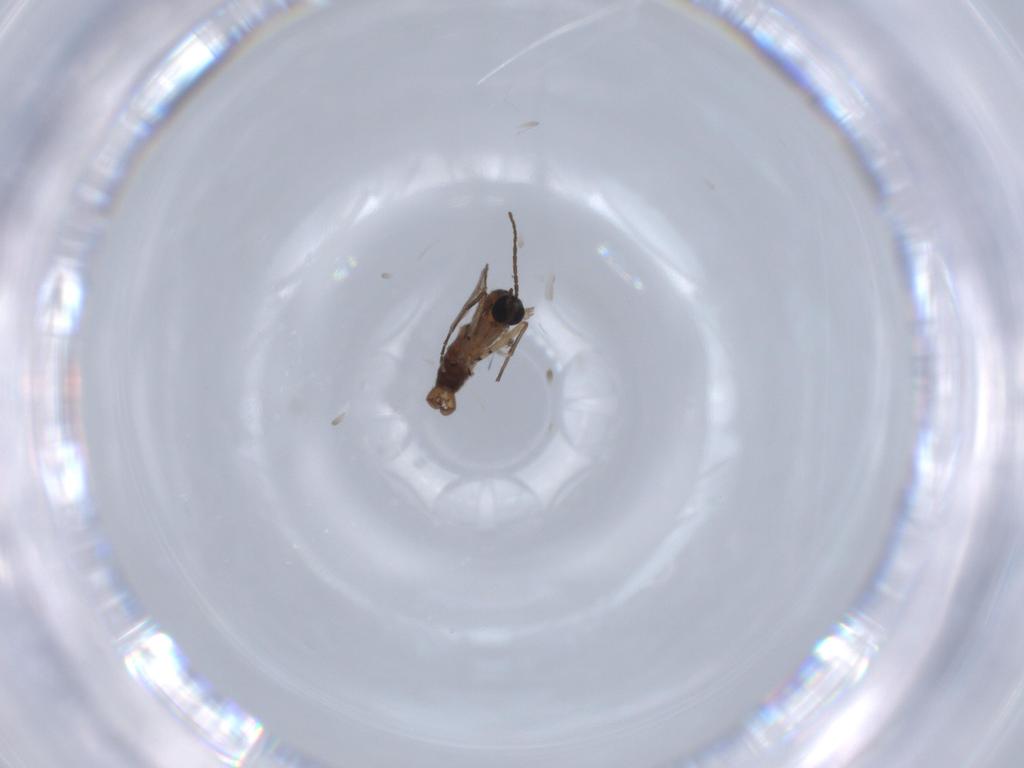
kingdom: Animalia
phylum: Arthropoda
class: Insecta
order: Diptera
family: Sciaridae
